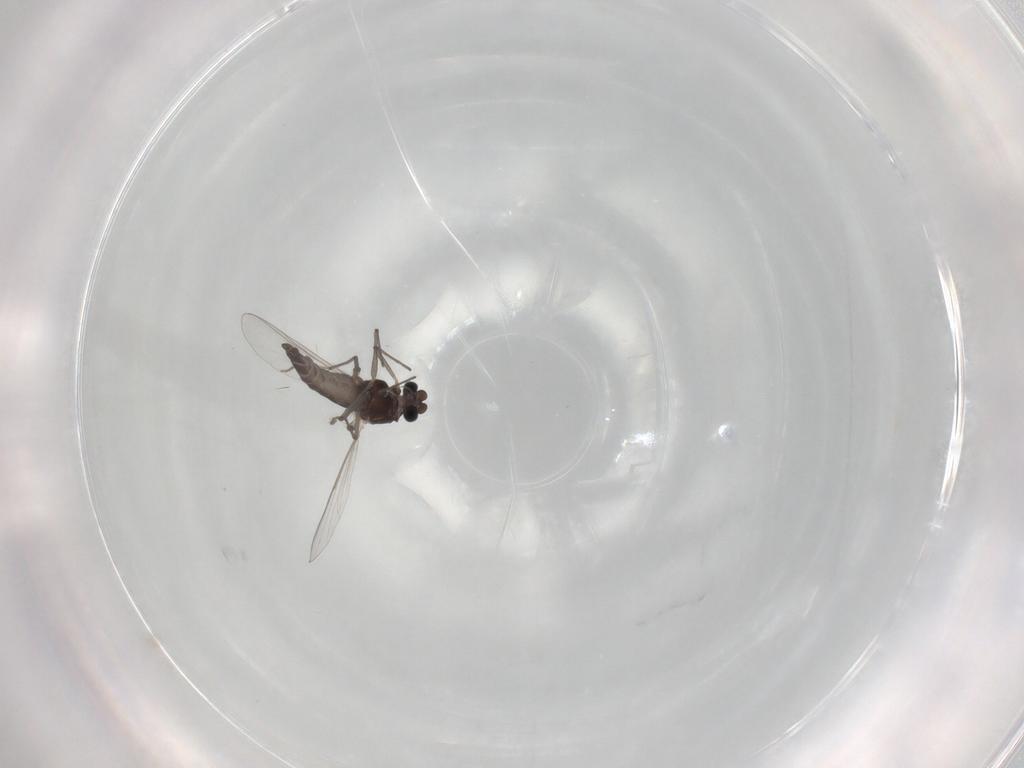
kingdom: Animalia
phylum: Arthropoda
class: Insecta
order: Diptera
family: Chironomidae
